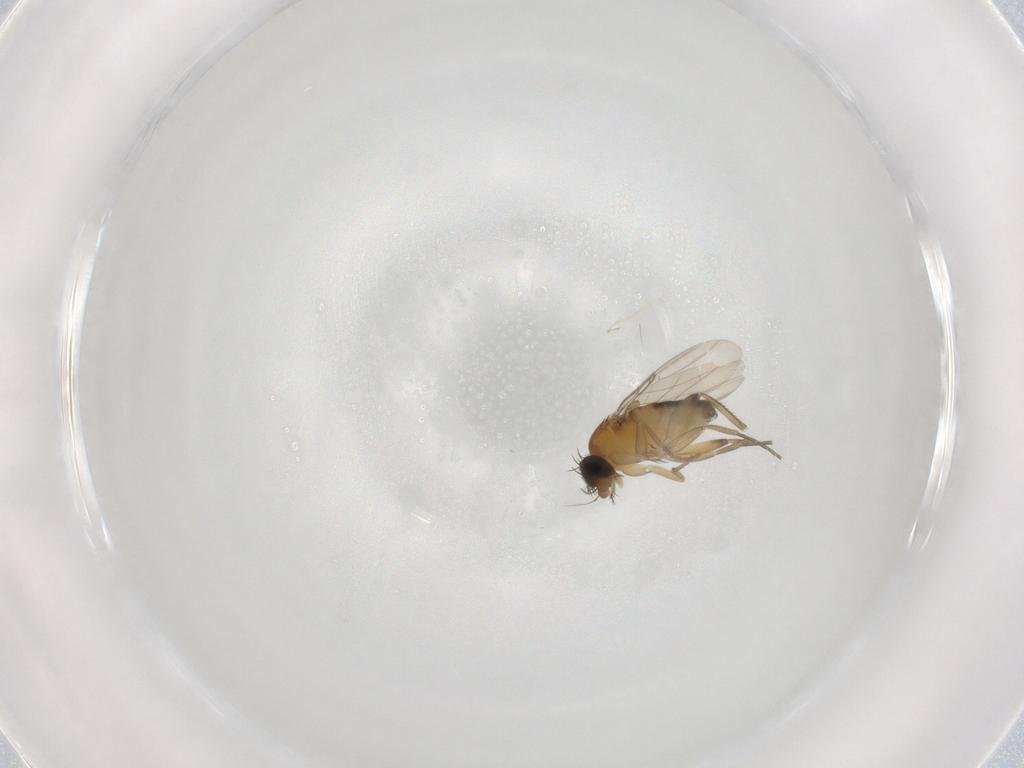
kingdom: Animalia
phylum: Arthropoda
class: Insecta
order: Diptera
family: Phoridae
